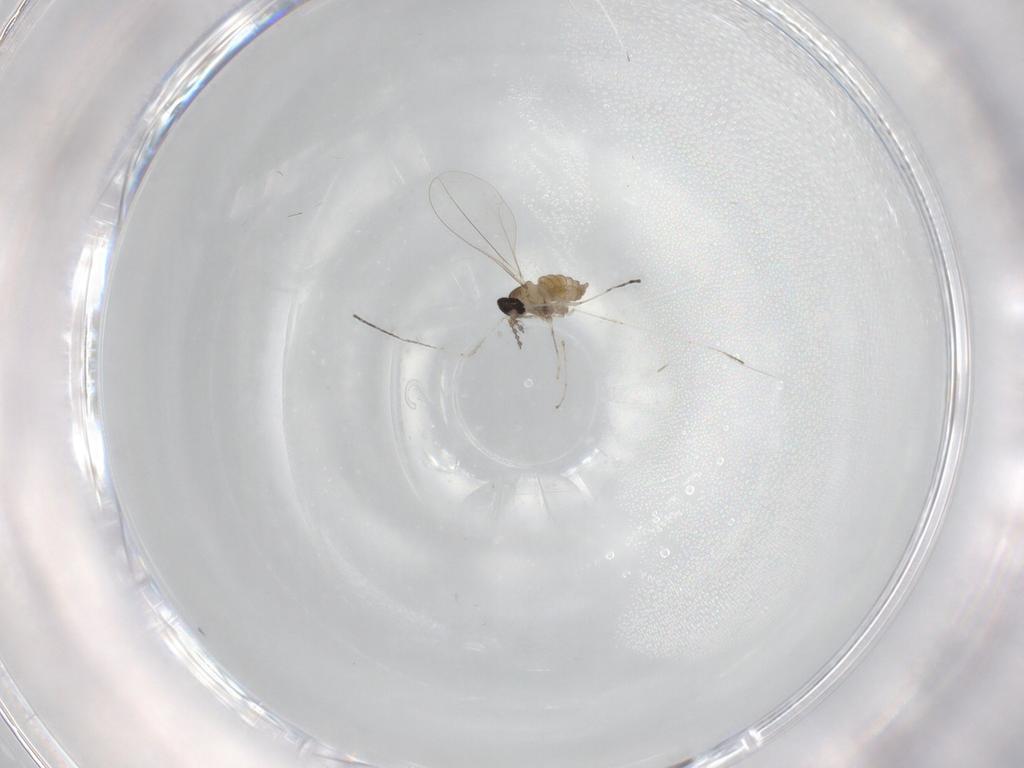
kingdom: Animalia
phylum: Arthropoda
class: Insecta
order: Diptera
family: Cecidomyiidae
